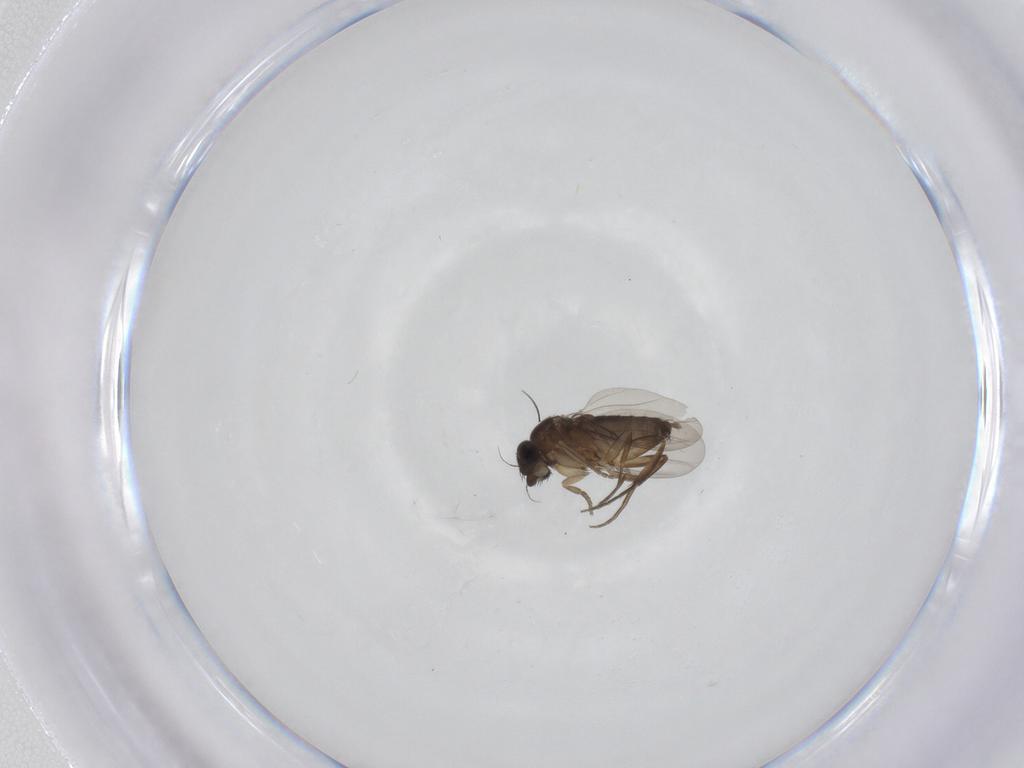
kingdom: Animalia
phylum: Arthropoda
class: Insecta
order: Diptera
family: Phoridae
